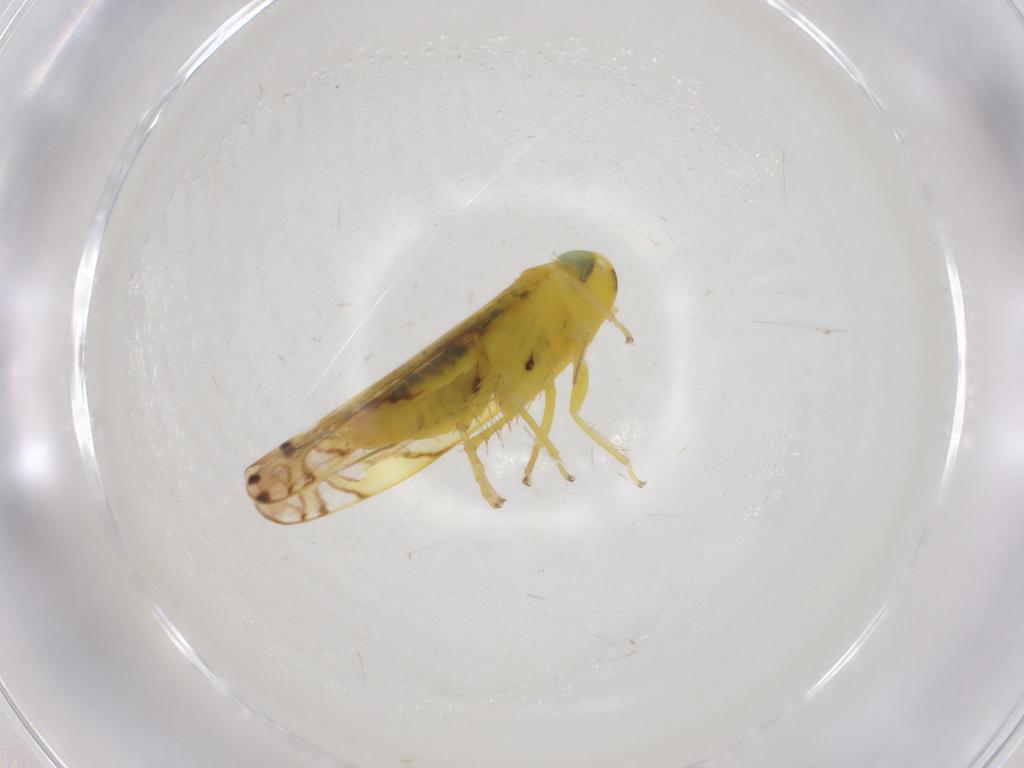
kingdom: Animalia
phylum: Arthropoda
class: Insecta
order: Hemiptera
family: Cicadellidae
